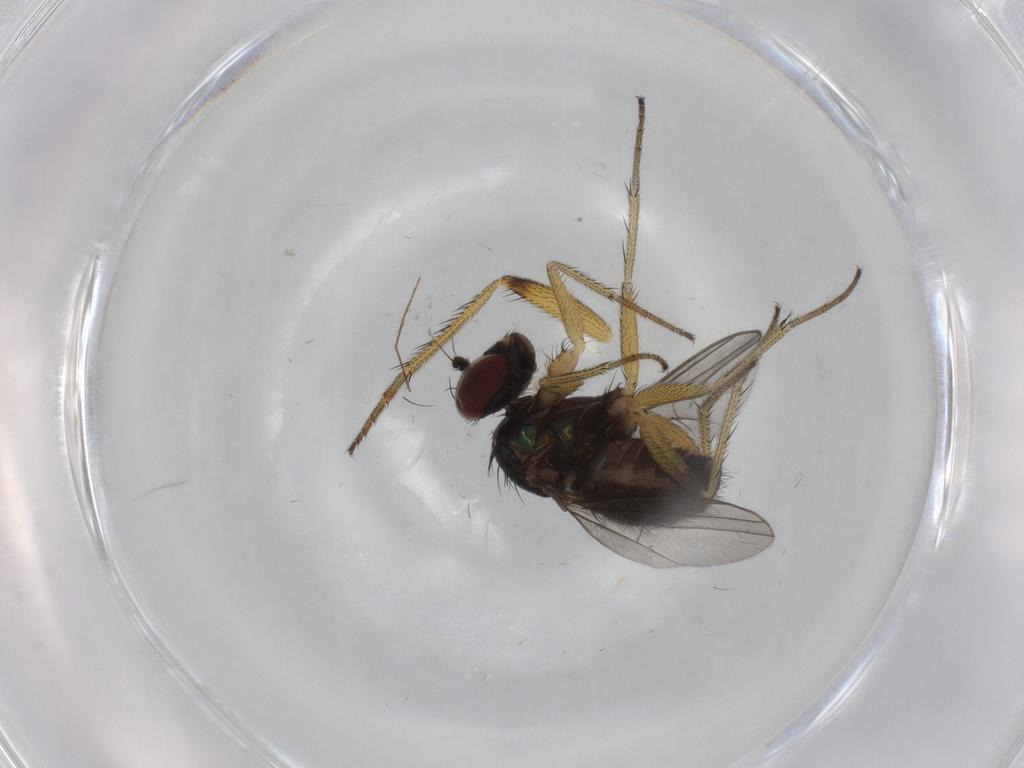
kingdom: Animalia
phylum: Arthropoda
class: Insecta
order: Diptera
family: Dolichopodidae
